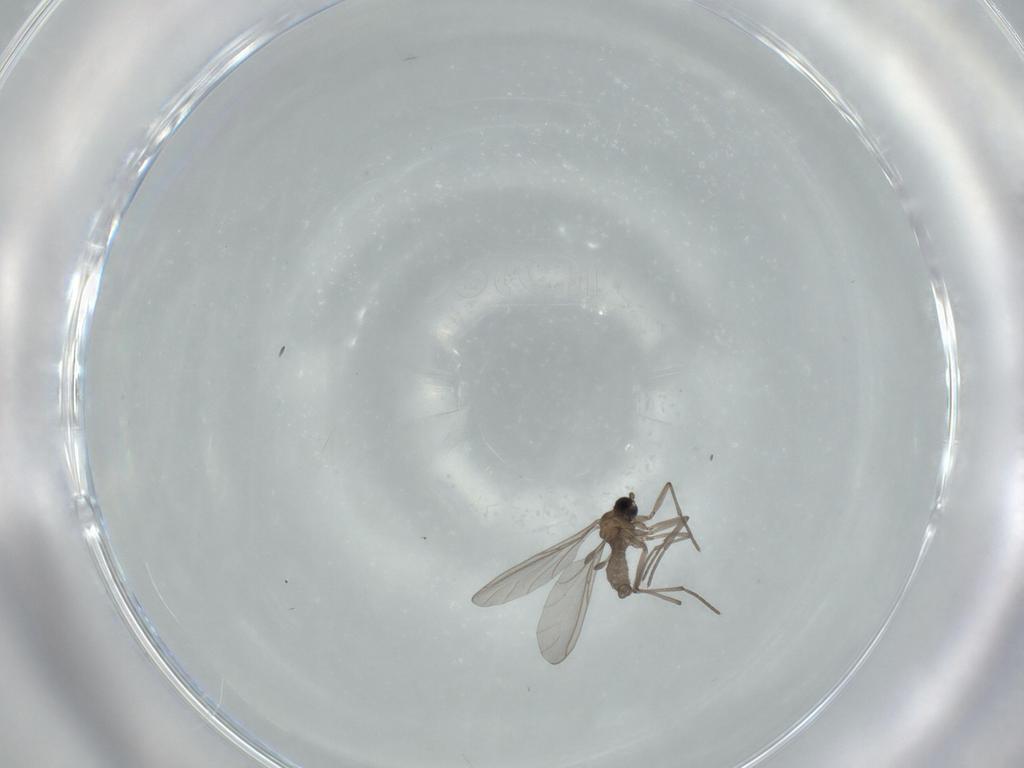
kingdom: Animalia
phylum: Arthropoda
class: Insecta
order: Diptera
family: Sciaridae
